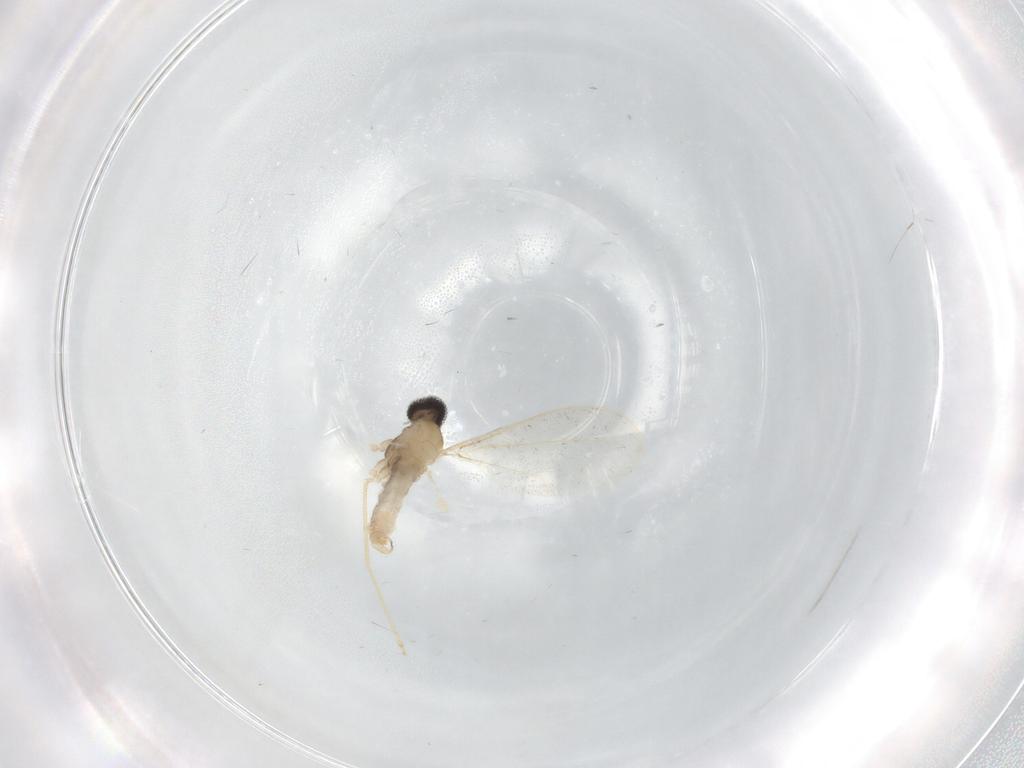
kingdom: Animalia
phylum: Arthropoda
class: Insecta
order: Diptera
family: Cecidomyiidae
